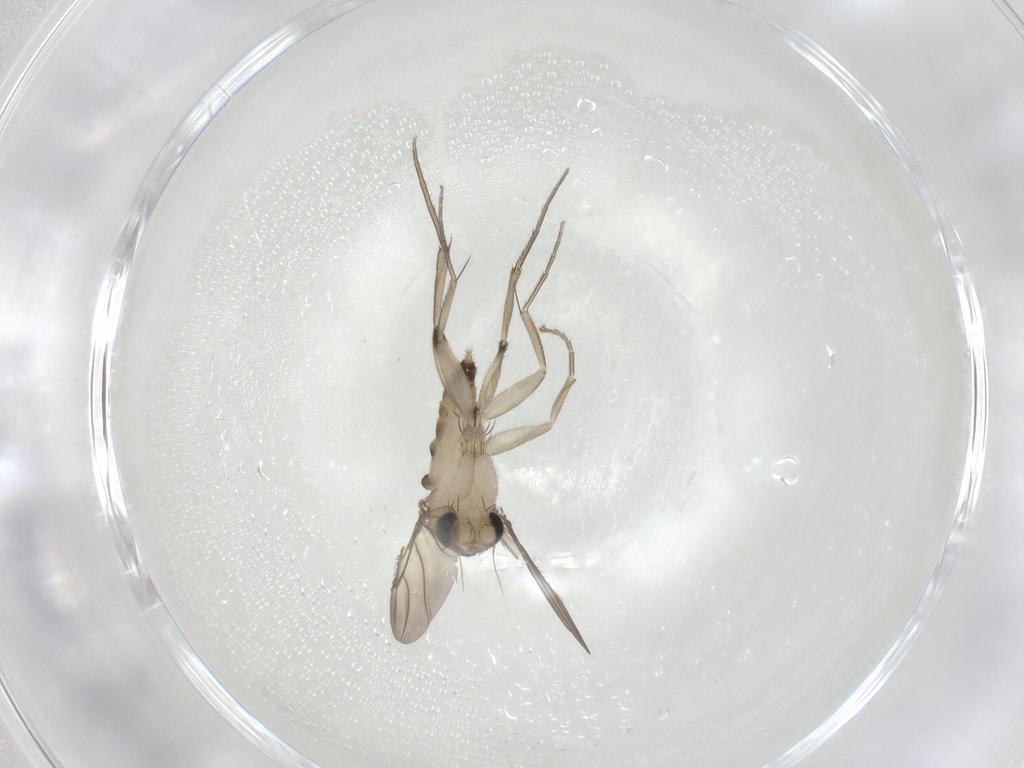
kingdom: Animalia
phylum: Arthropoda
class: Insecta
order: Diptera
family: Phoridae
